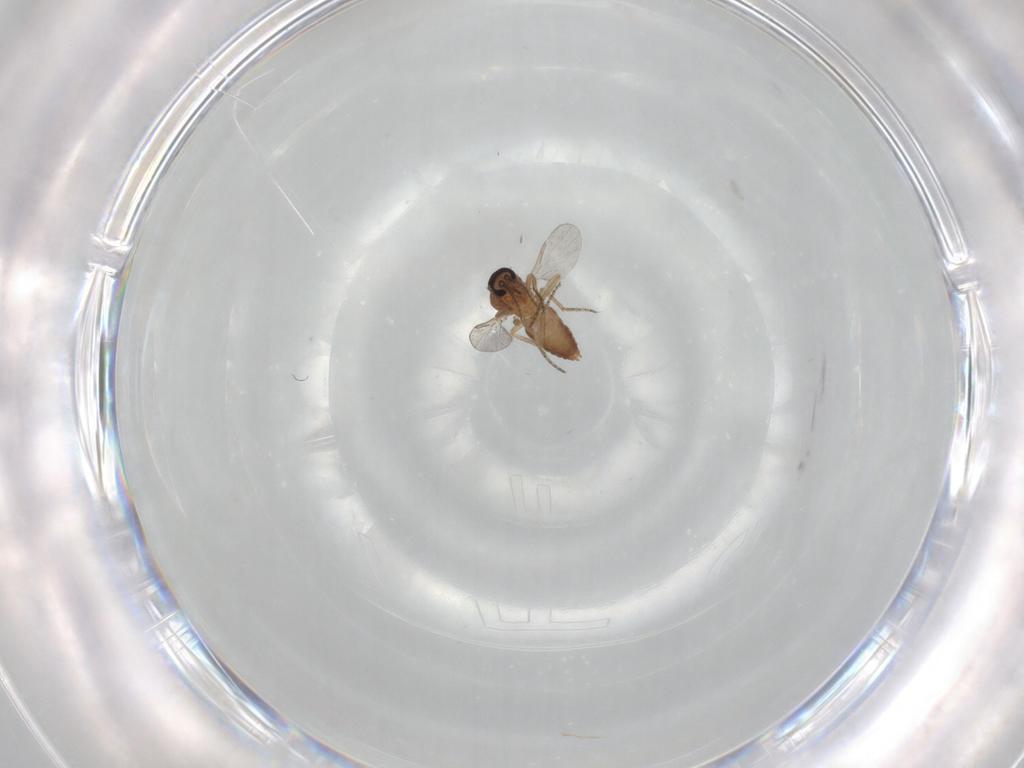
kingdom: Animalia
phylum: Arthropoda
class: Insecta
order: Diptera
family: Ceratopogonidae
